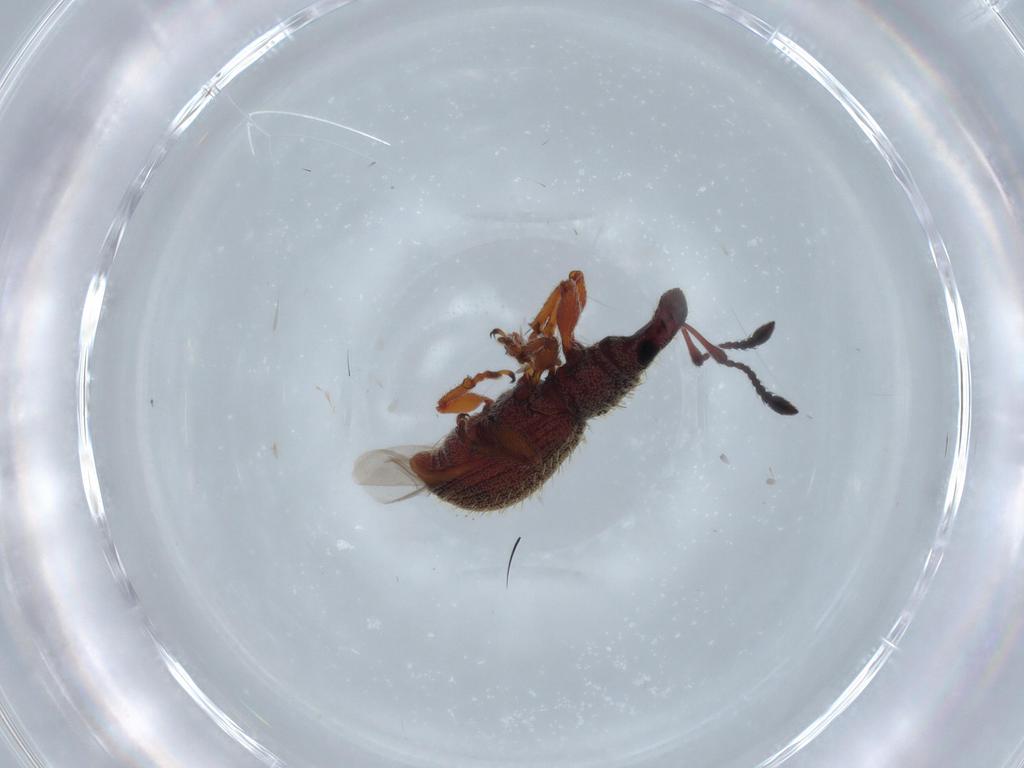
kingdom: Animalia
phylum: Arthropoda
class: Insecta
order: Coleoptera
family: Curculionidae
